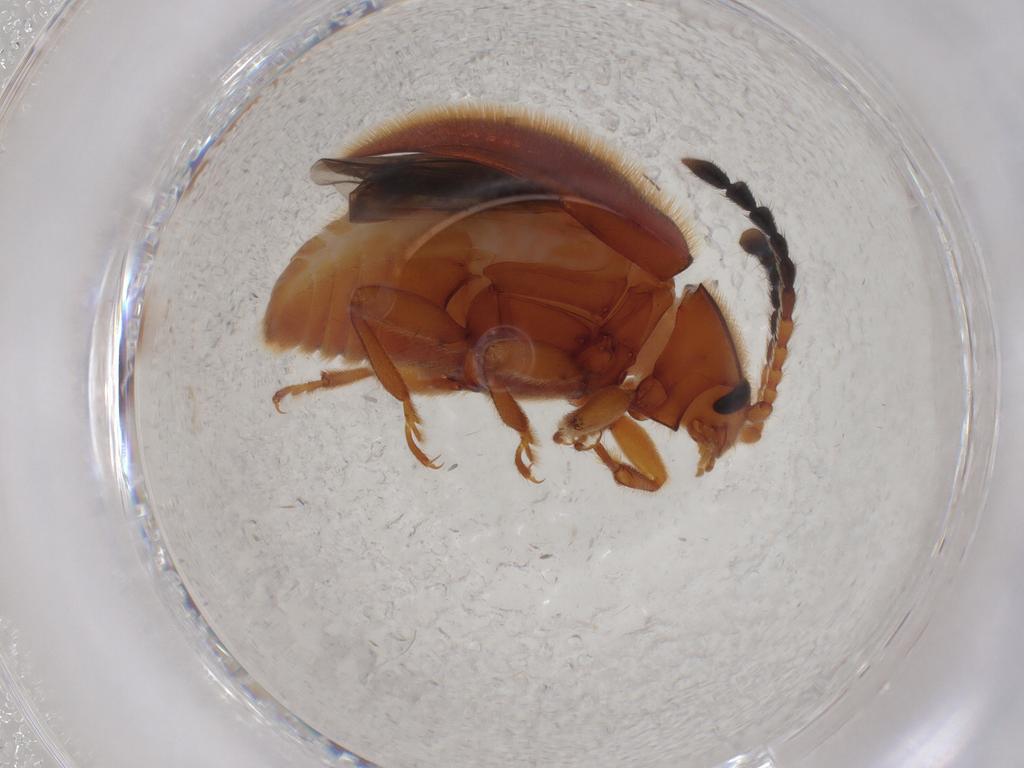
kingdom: Animalia
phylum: Arthropoda
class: Insecta
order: Coleoptera
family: Endomychidae
